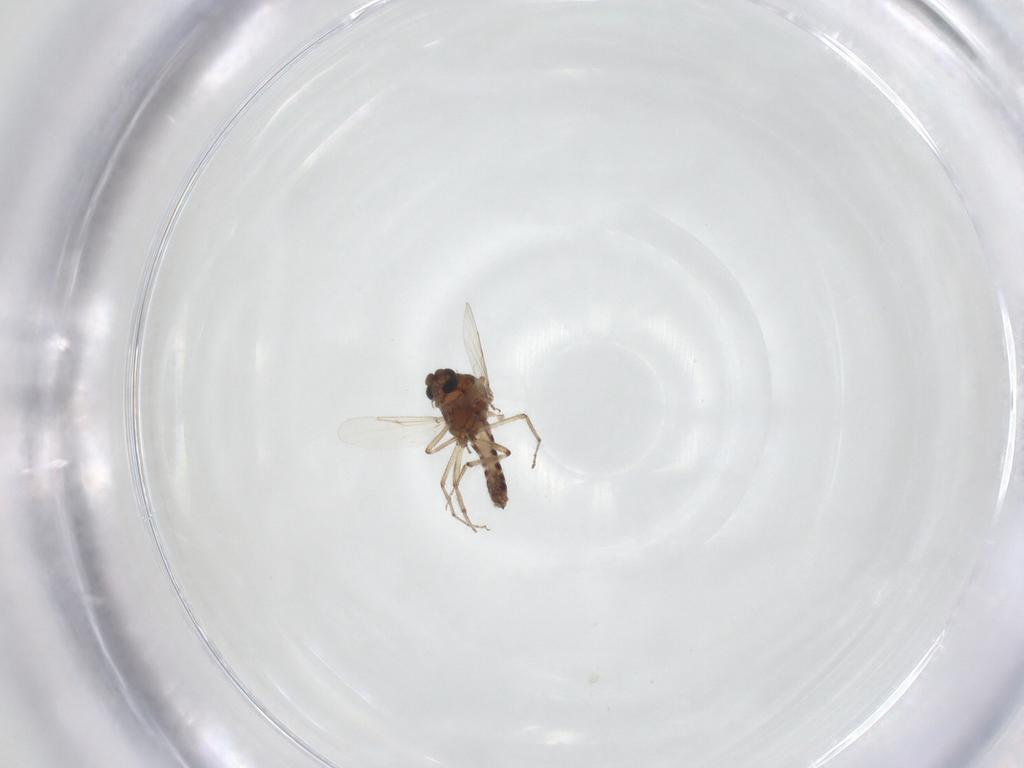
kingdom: Animalia
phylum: Arthropoda
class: Insecta
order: Diptera
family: Ceratopogonidae
